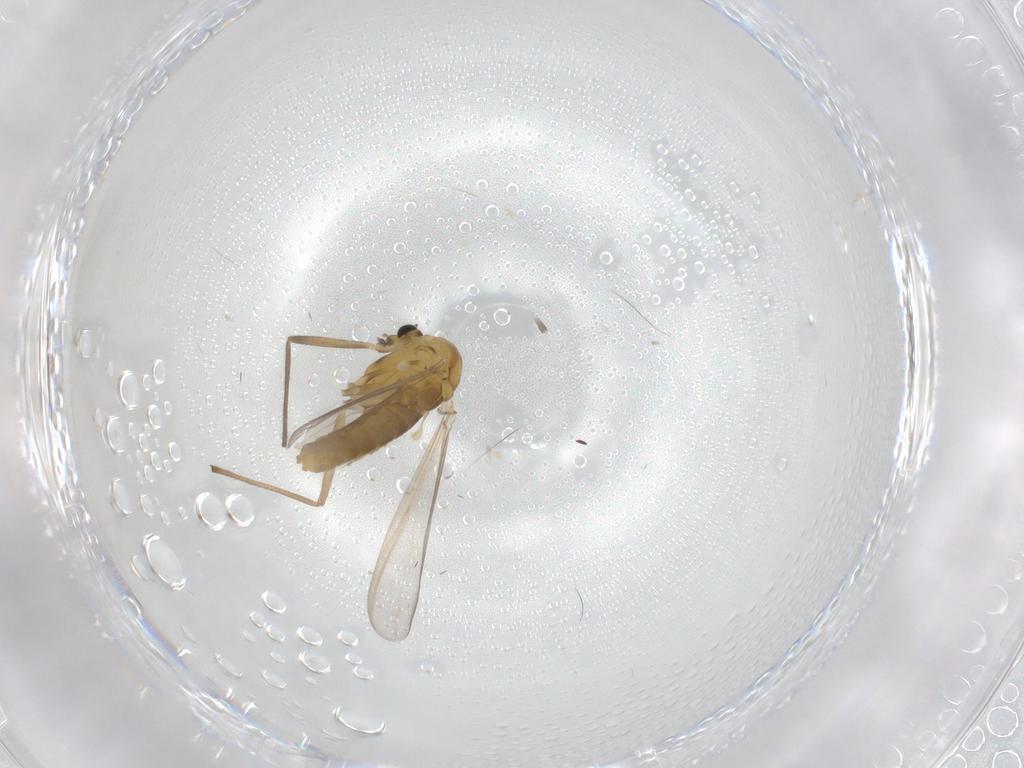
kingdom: Animalia
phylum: Arthropoda
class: Insecta
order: Diptera
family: Chironomidae
